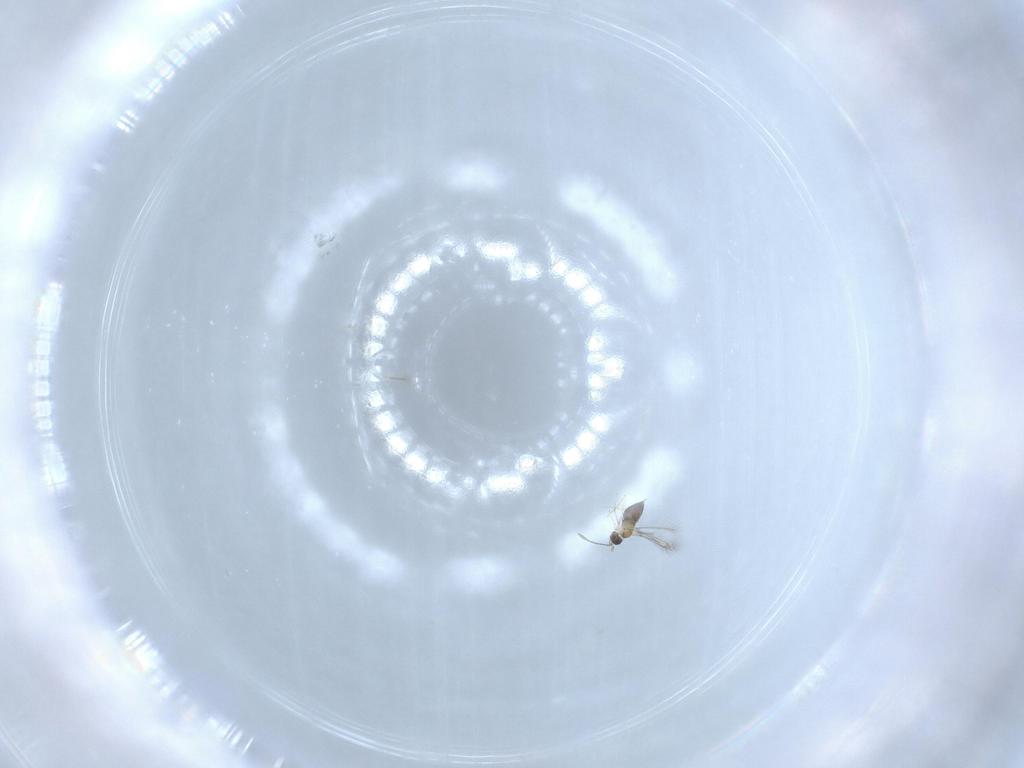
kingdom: Animalia
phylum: Arthropoda
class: Insecta
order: Hymenoptera
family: Mymaridae
